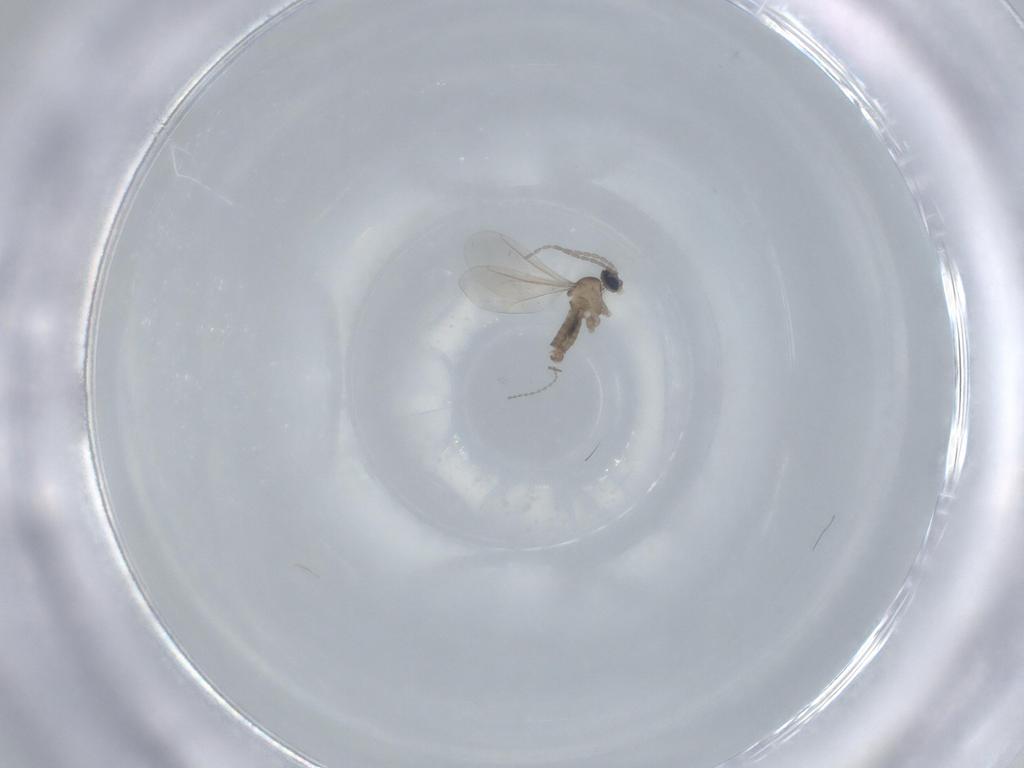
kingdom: Animalia
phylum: Arthropoda
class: Insecta
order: Diptera
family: Cecidomyiidae
